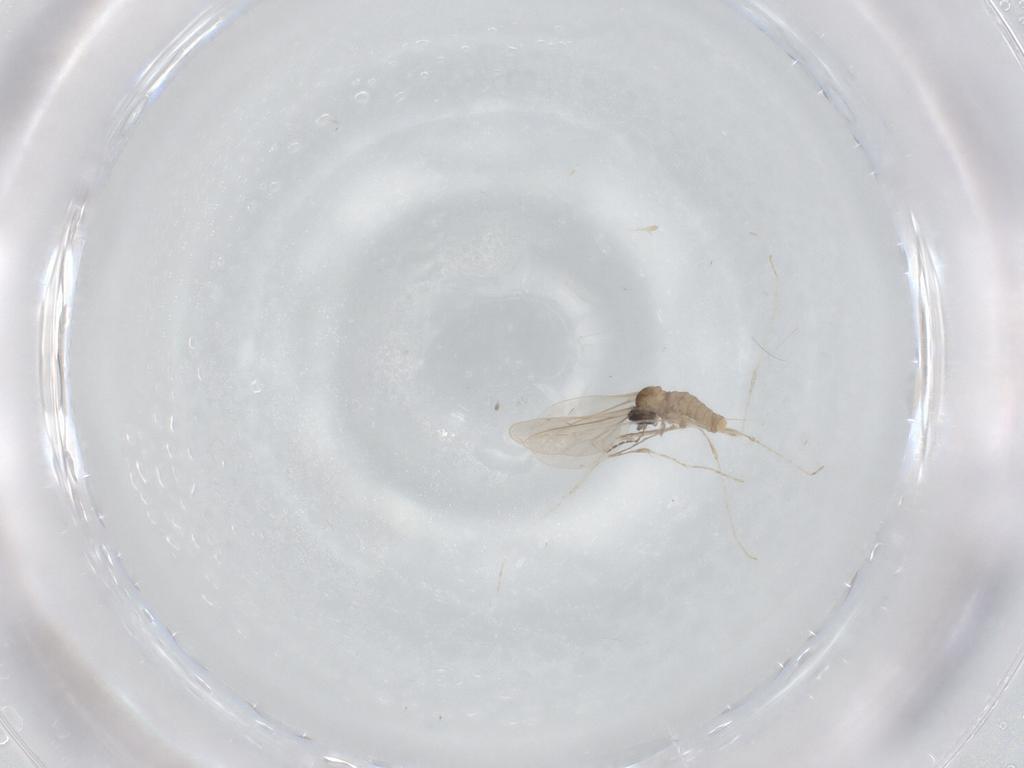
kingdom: Animalia
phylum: Arthropoda
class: Insecta
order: Diptera
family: Cecidomyiidae
